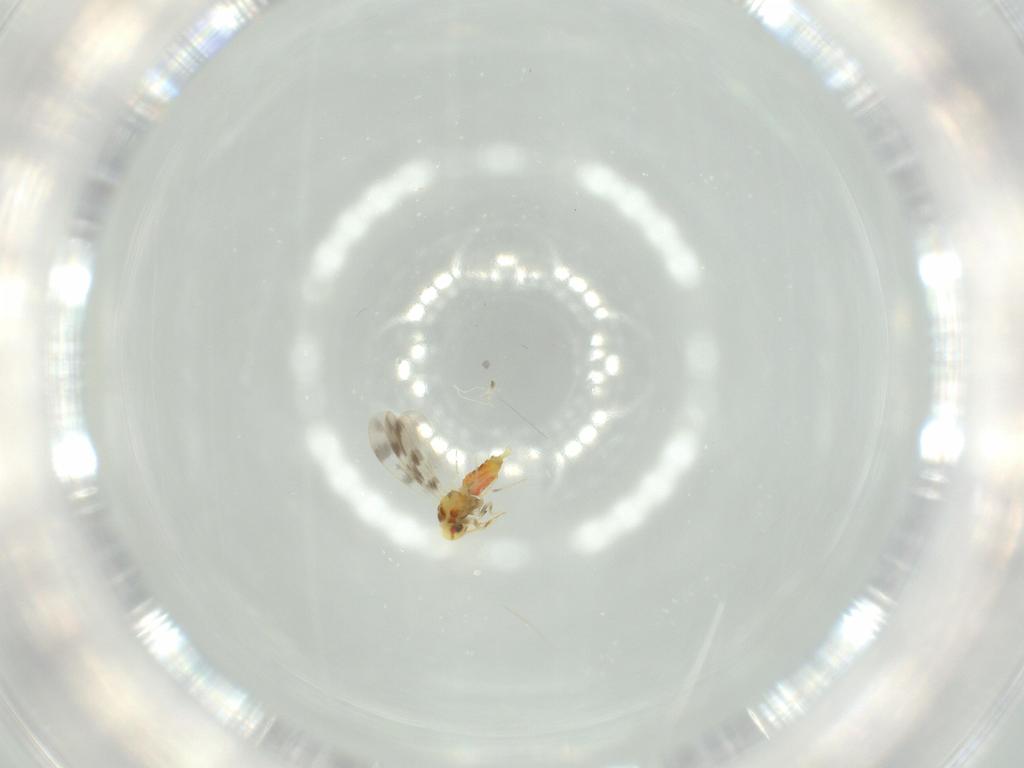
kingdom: Animalia
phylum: Arthropoda
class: Insecta
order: Hemiptera
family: Aleyrodidae
